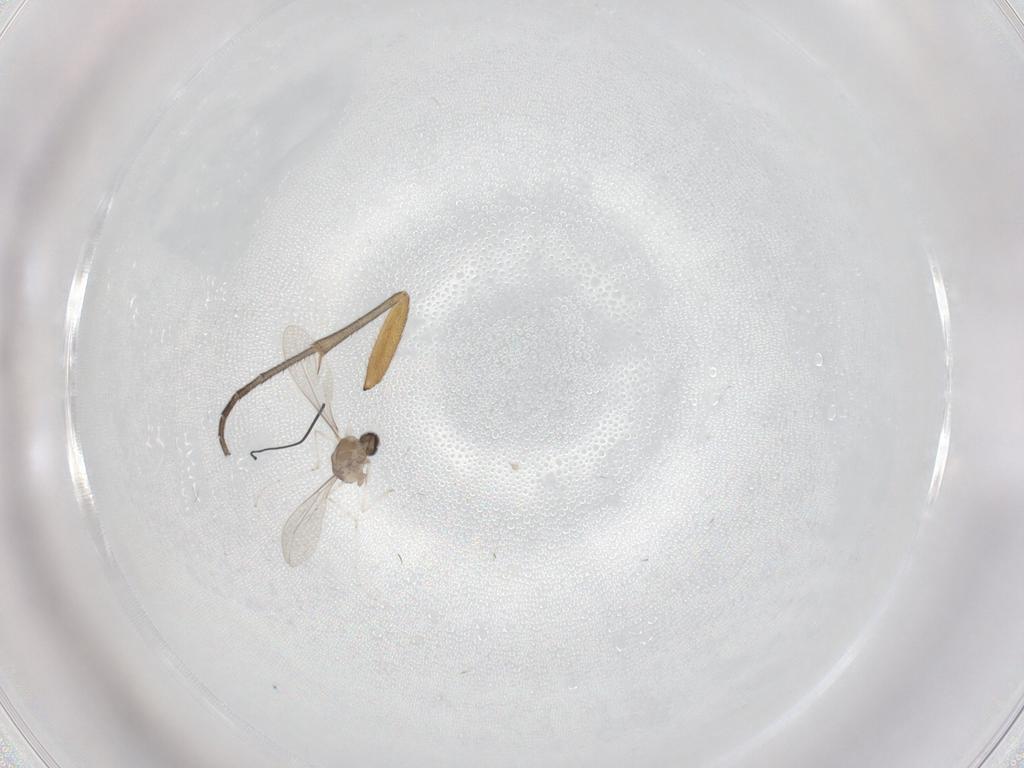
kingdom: Animalia
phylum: Arthropoda
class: Insecta
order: Diptera
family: Mycetophilidae
